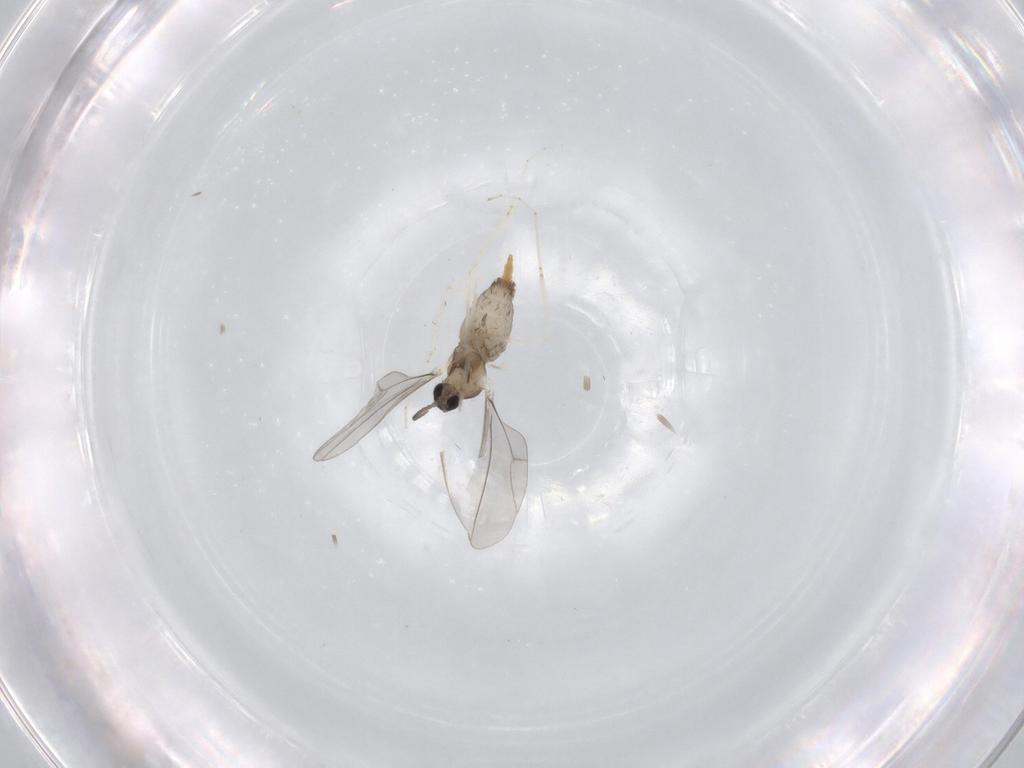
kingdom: Animalia
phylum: Arthropoda
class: Insecta
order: Diptera
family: Cecidomyiidae
